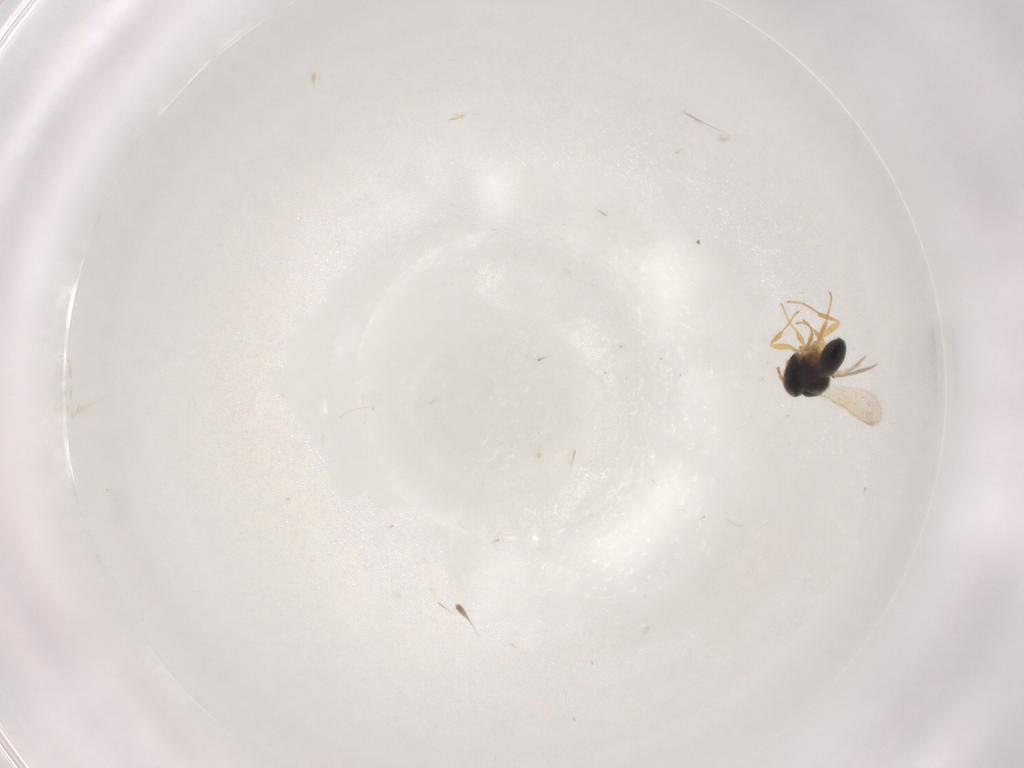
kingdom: Animalia
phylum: Arthropoda
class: Insecta
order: Hymenoptera
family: Scelionidae
